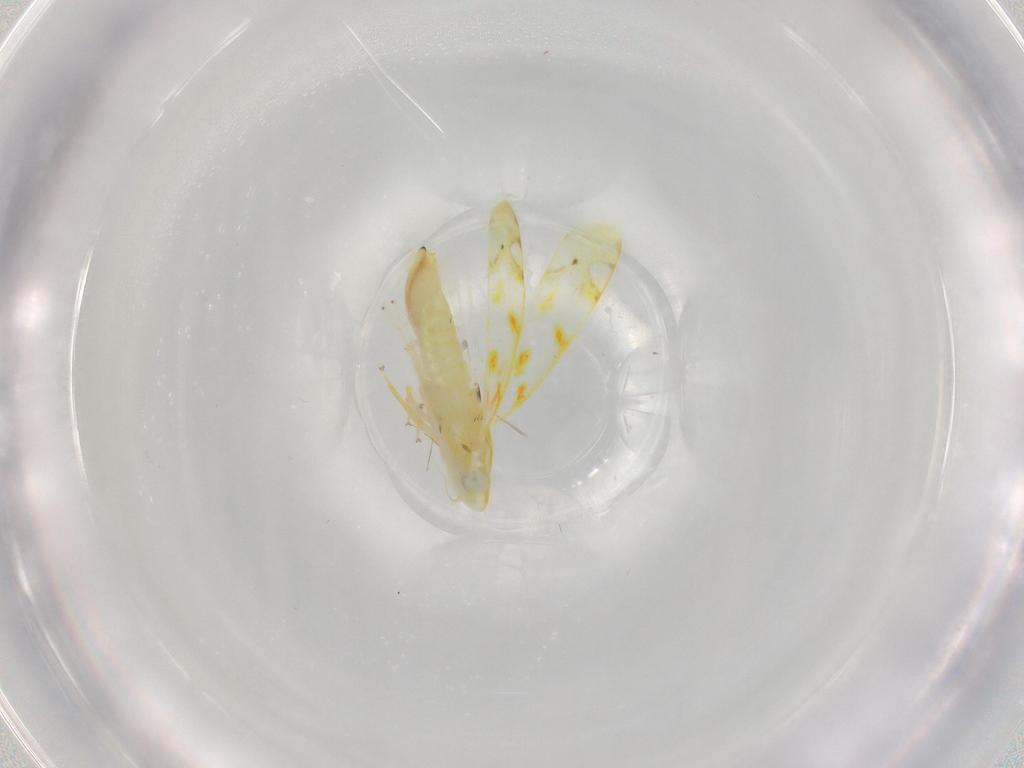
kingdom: Animalia
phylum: Arthropoda
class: Insecta
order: Hemiptera
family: Cicadellidae
